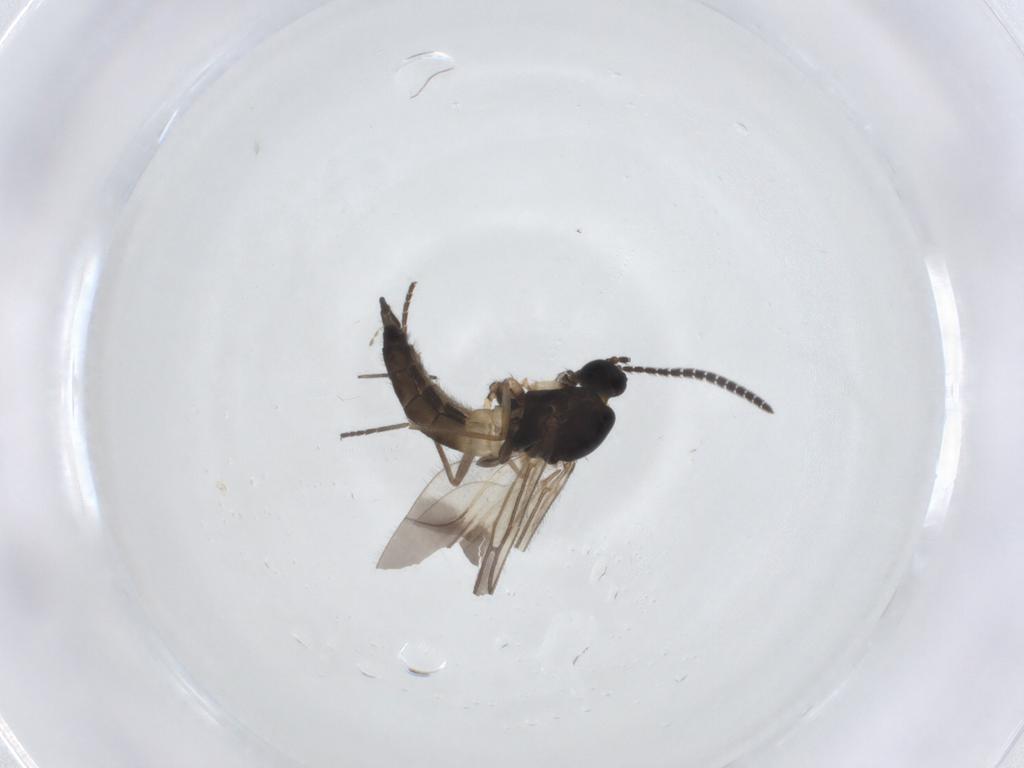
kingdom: Animalia
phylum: Arthropoda
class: Insecta
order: Diptera
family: Sciaridae
